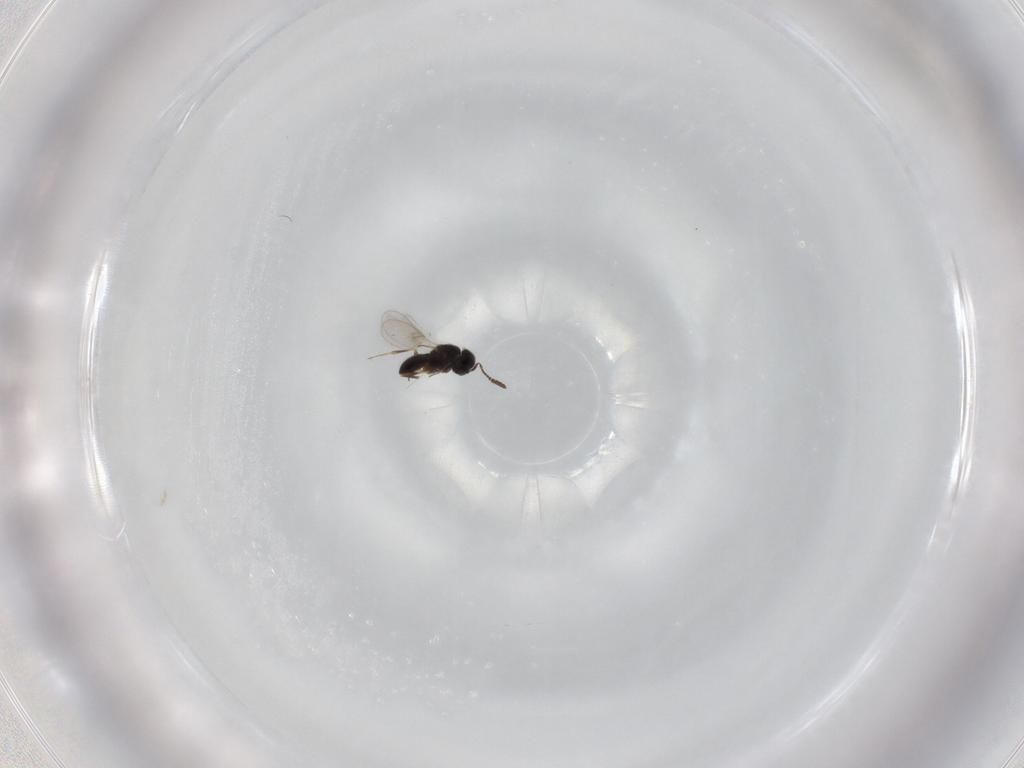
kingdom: Animalia
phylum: Arthropoda
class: Insecta
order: Hymenoptera
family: Scelionidae
